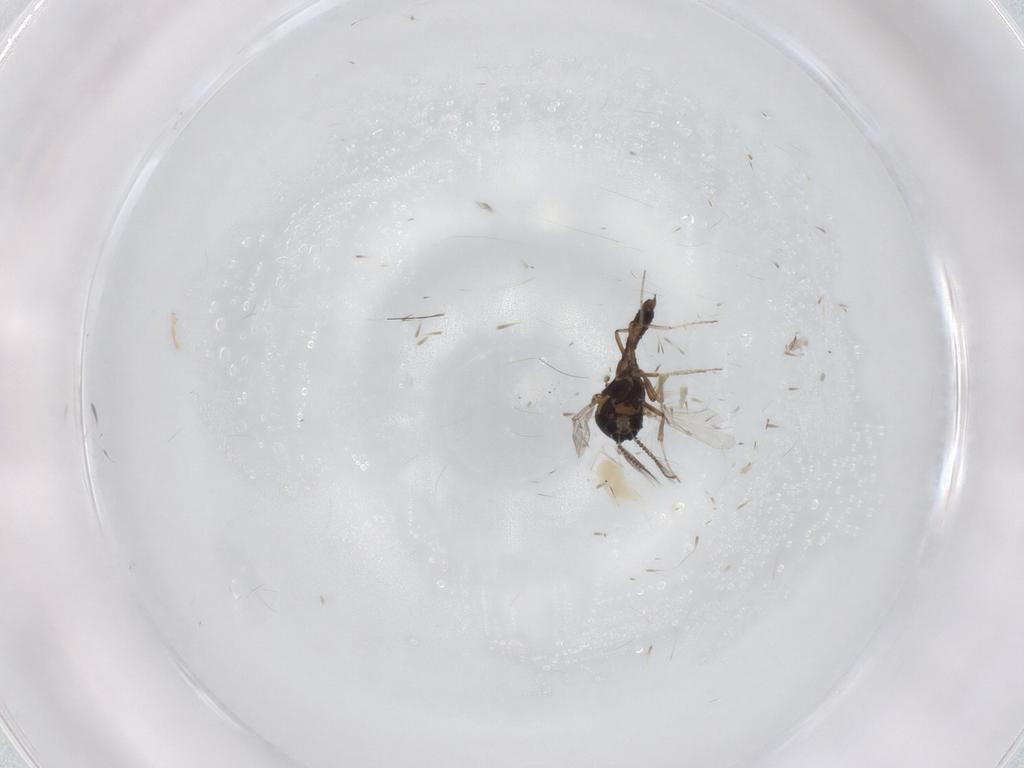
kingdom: Animalia
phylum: Arthropoda
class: Insecta
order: Diptera
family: Ceratopogonidae
